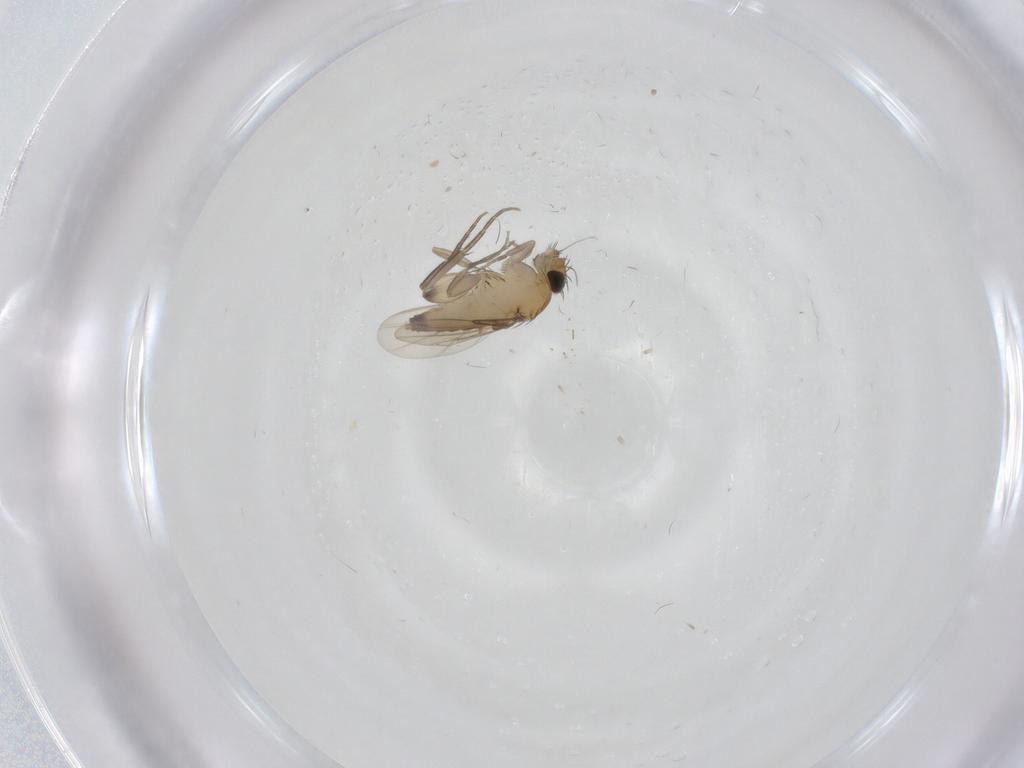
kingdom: Animalia
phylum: Arthropoda
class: Insecta
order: Diptera
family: Phoridae
